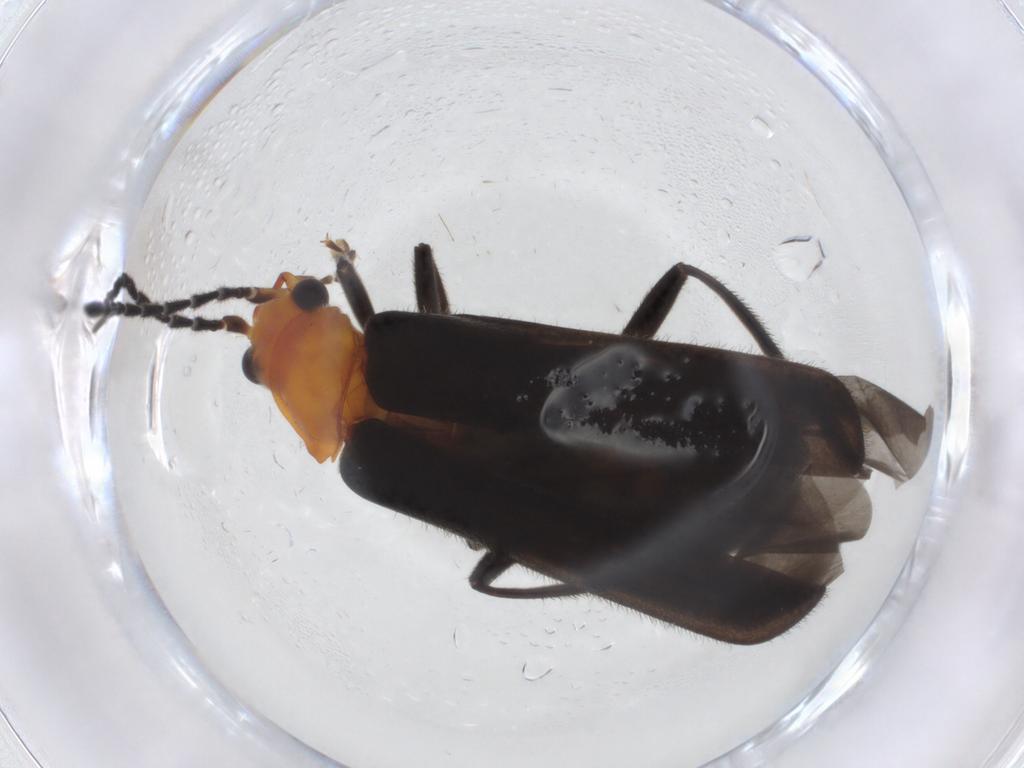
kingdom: Animalia
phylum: Arthropoda
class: Insecta
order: Coleoptera
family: Cantharidae
